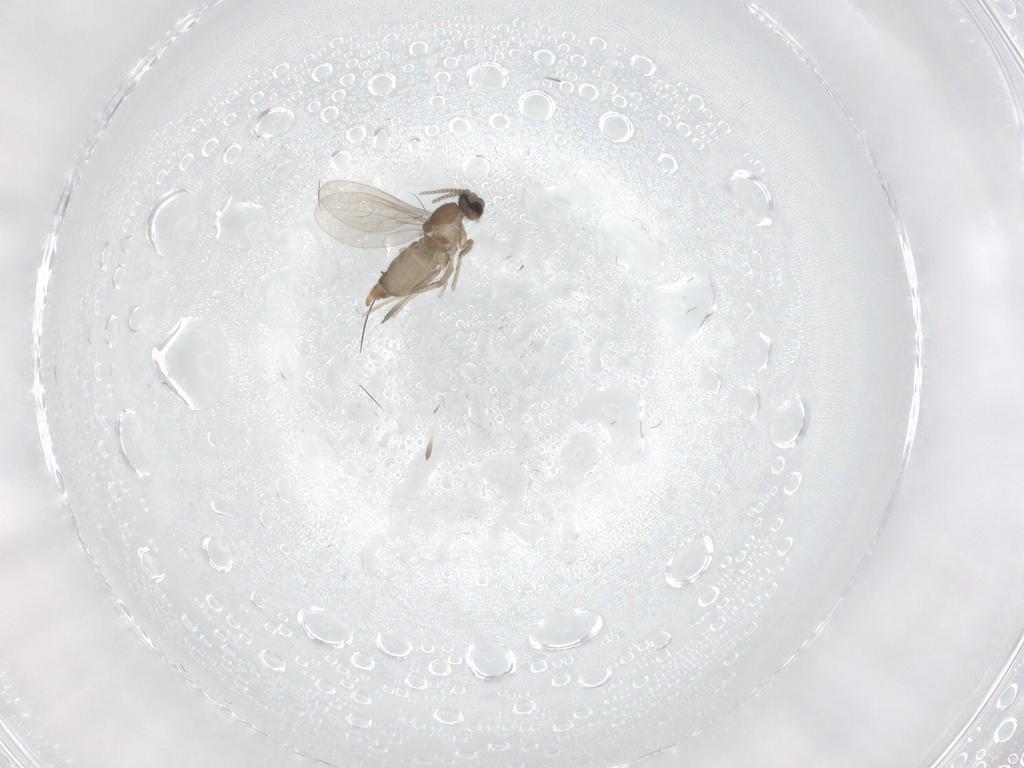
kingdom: Animalia
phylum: Arthropoda
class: Insecta
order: Diptera
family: Cecidomyiidae
